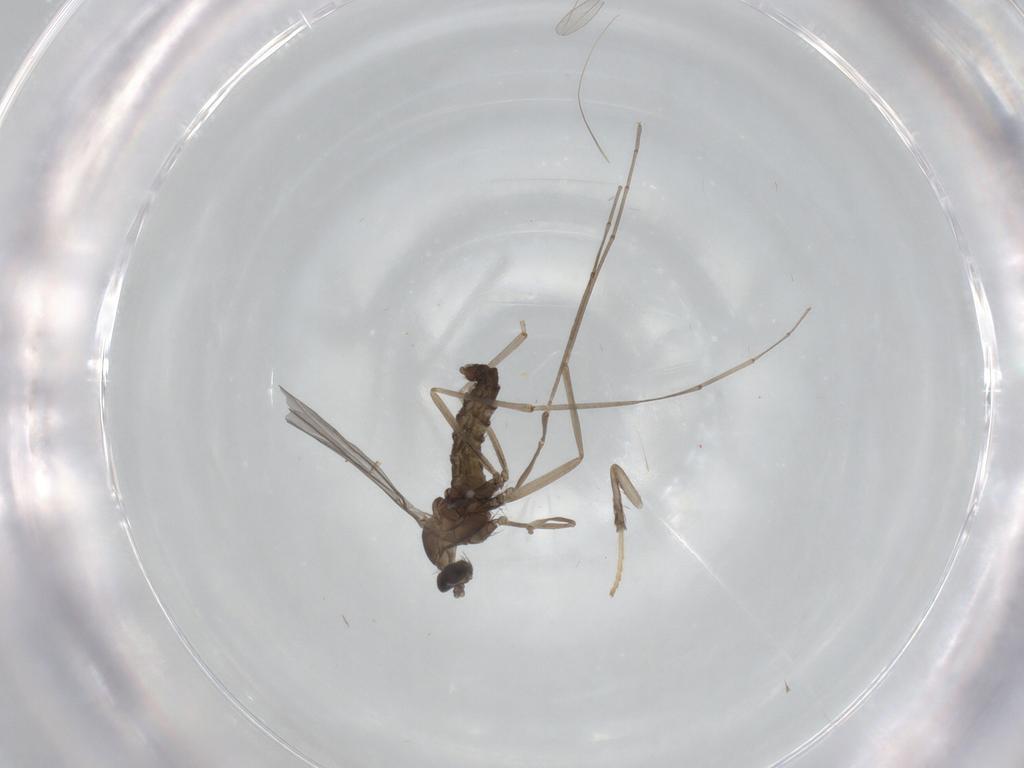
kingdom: Animalia
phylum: Arthropoda
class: Insecta
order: Diptera
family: Cecidomyiidae
